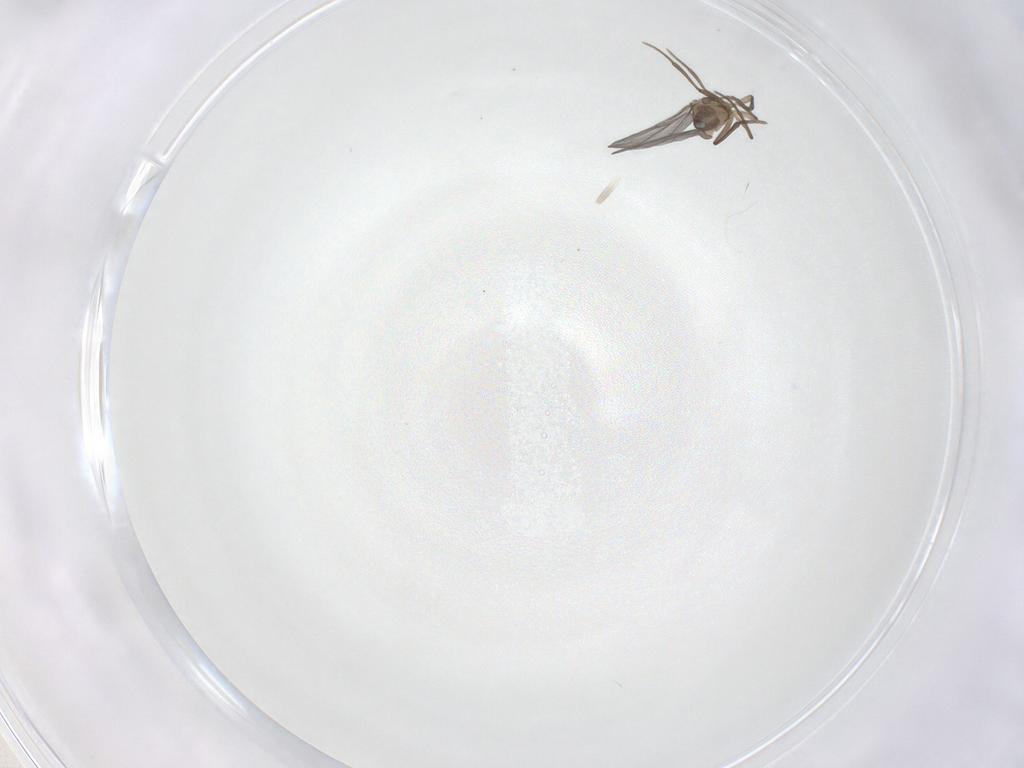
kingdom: Animalia
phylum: Arthropoda
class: Insecta
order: Diptera
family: Phoridae
